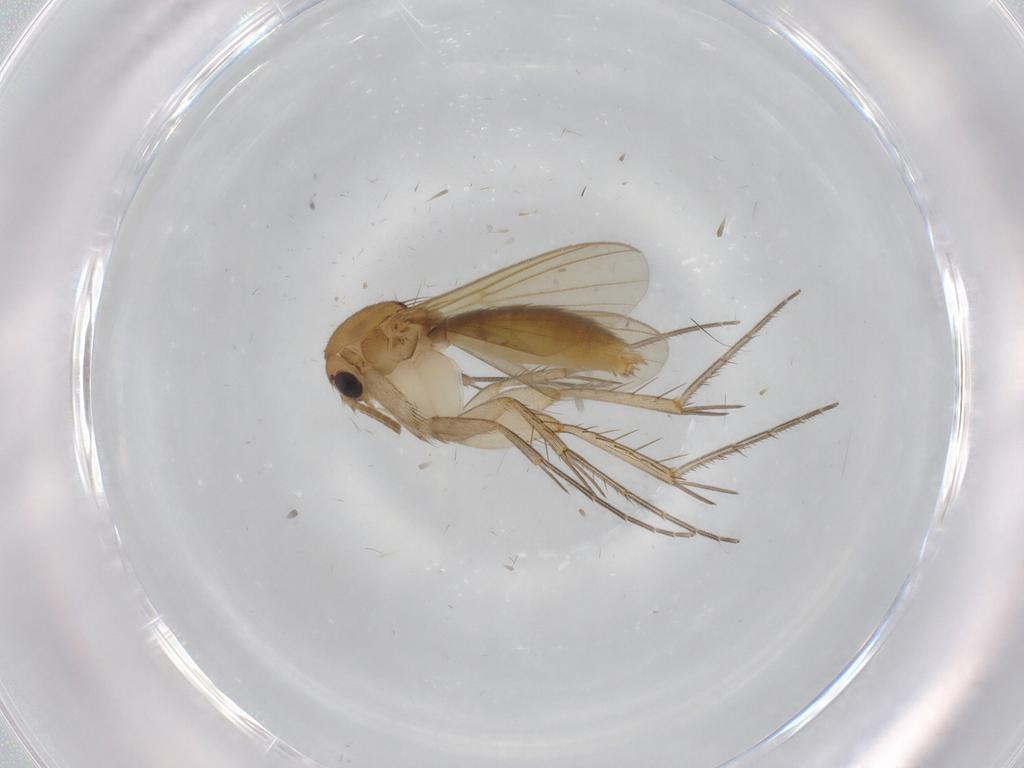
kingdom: Animalia
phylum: Arthropoda
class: Insecta
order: Diptera
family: Mycetophilidae
